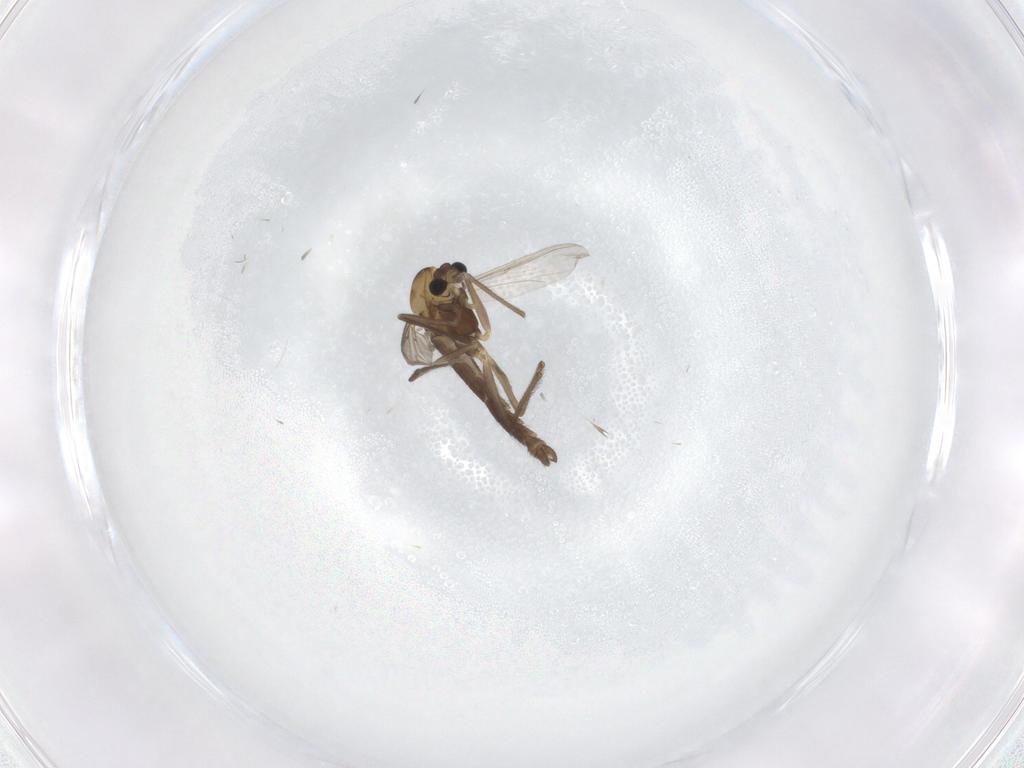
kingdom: Animalia
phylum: Arthropoda
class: Insecta
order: Diptera
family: Chironomidae
